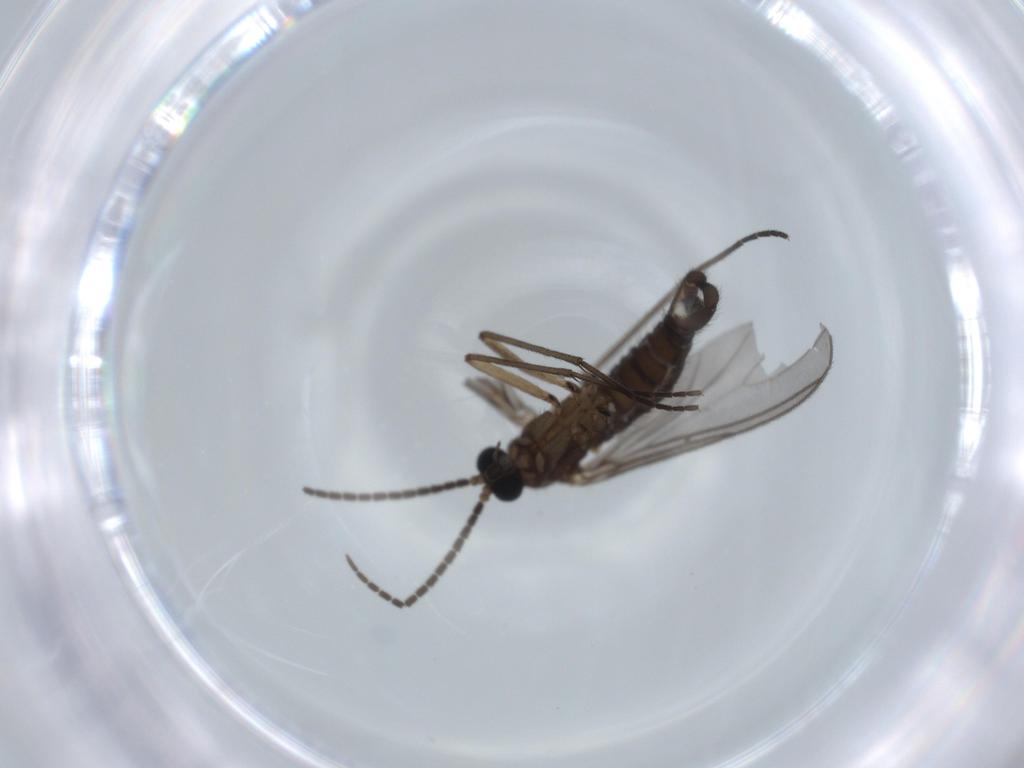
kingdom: Animalia
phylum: Arthropoda
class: Insecta
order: Diptera
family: Sciaridae
